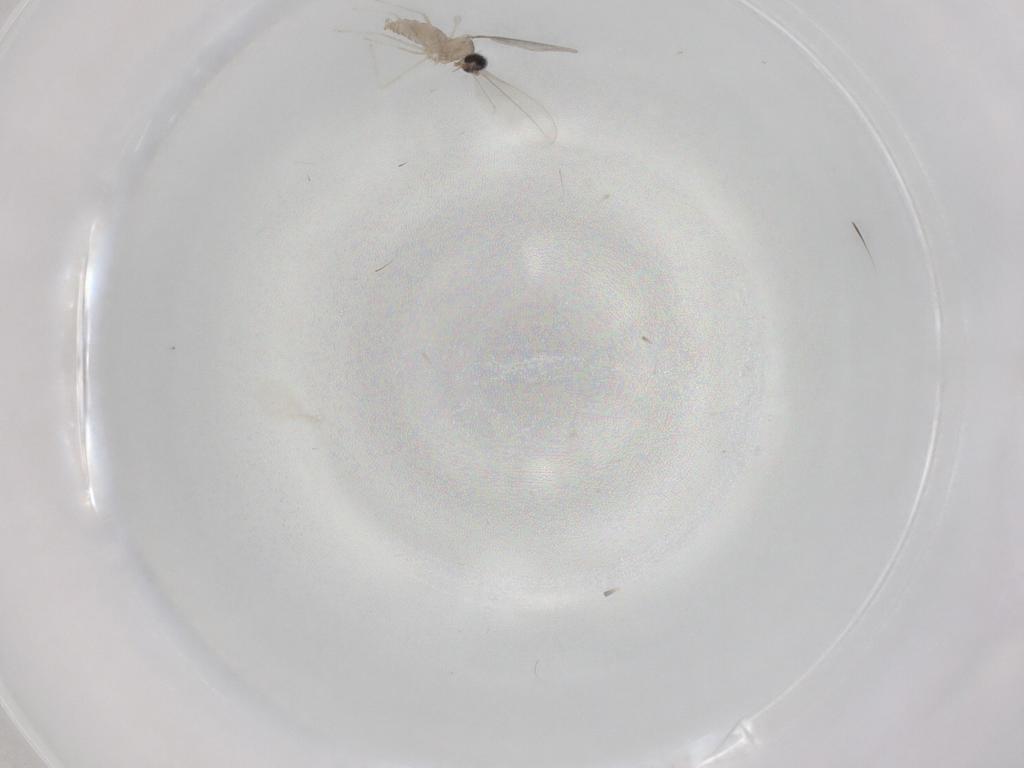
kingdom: Animalia
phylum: Arthropoda
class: Insecta
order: Diptera
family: Cecidomyiidae
